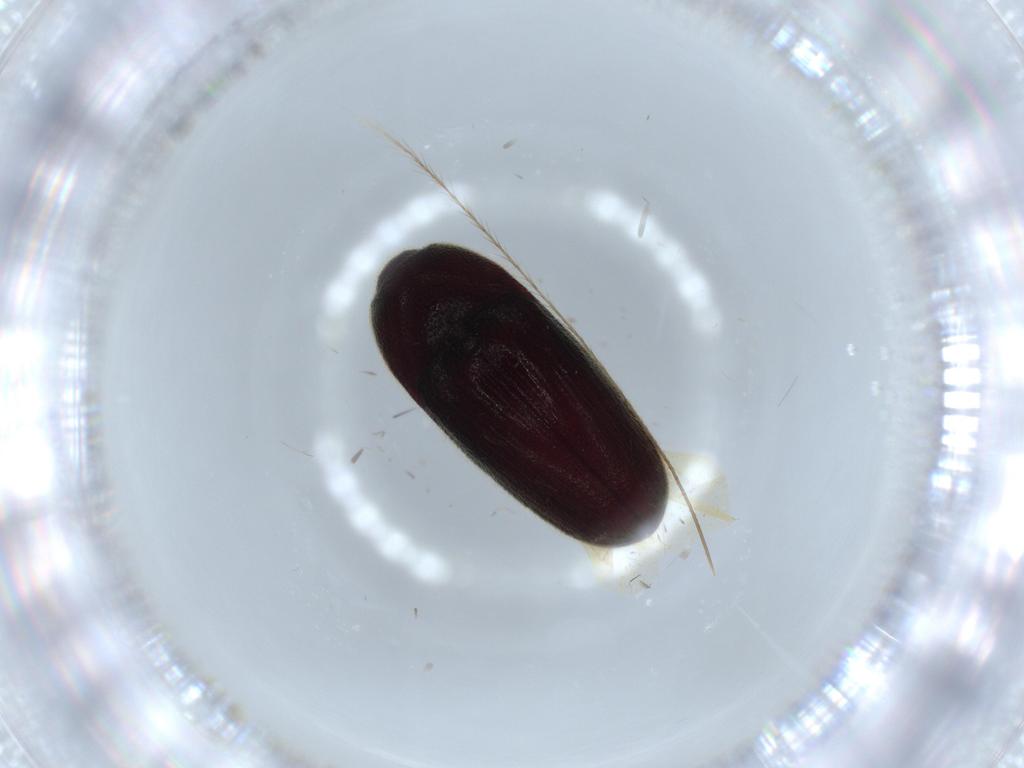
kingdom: Animalia
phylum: Arthropoda
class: Insecta
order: Coleoptera
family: Throscidae
